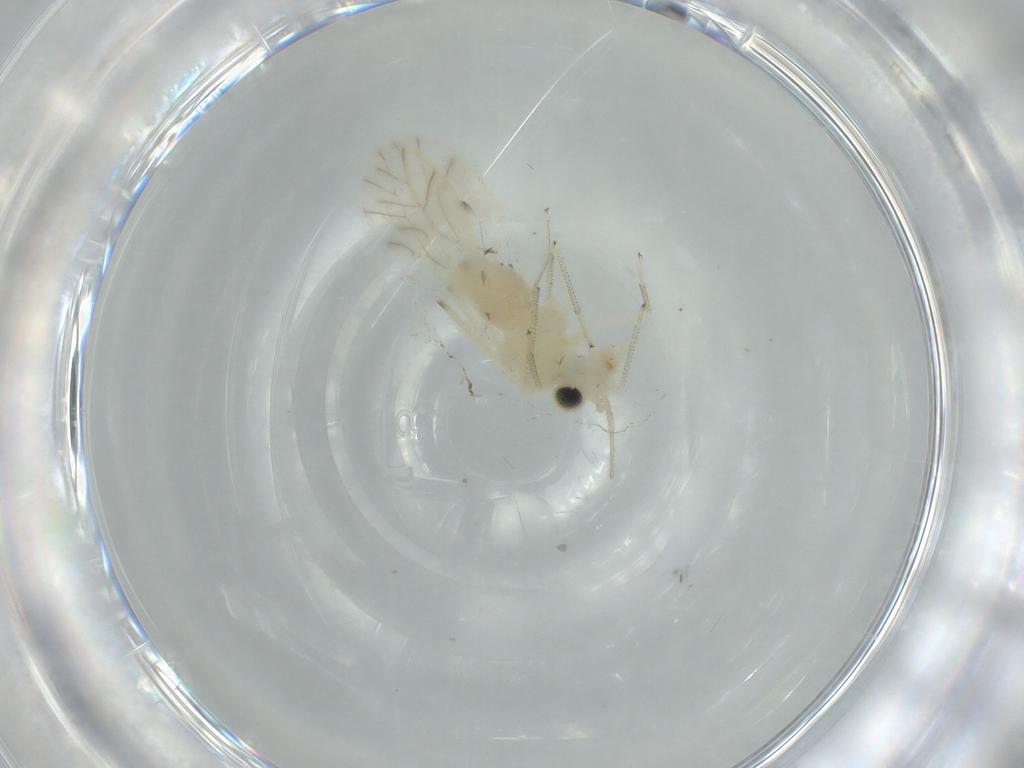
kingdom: Animalia
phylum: Arthropoda
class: Insecta
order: Psocodea
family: Caeciliusidae
